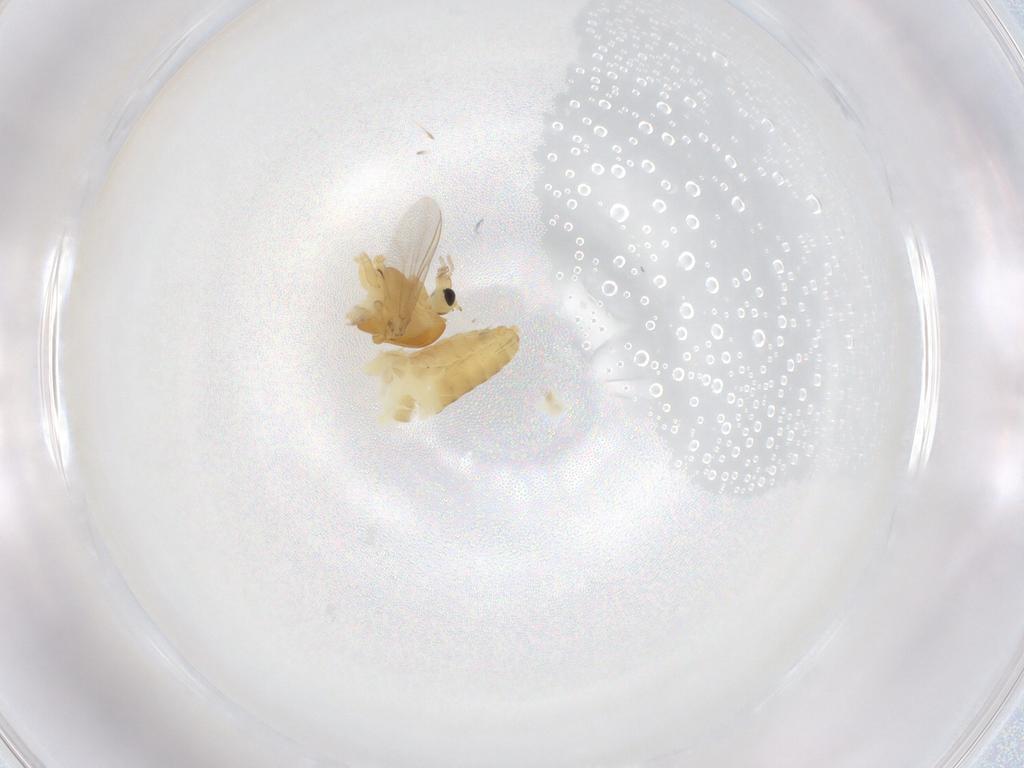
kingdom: Animalia
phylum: Arthropoda
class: Insecta
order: Diptera
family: Chironomidae
